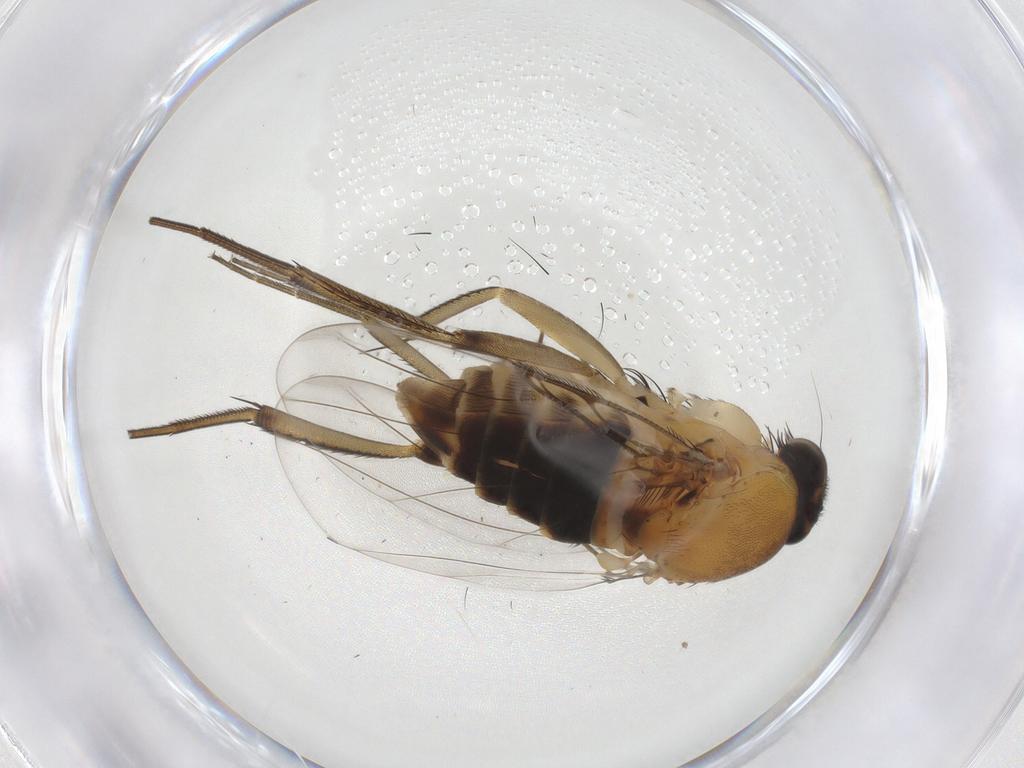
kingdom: Animalia
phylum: Arthropoda
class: Insecta
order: Diptera
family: Phoridae
